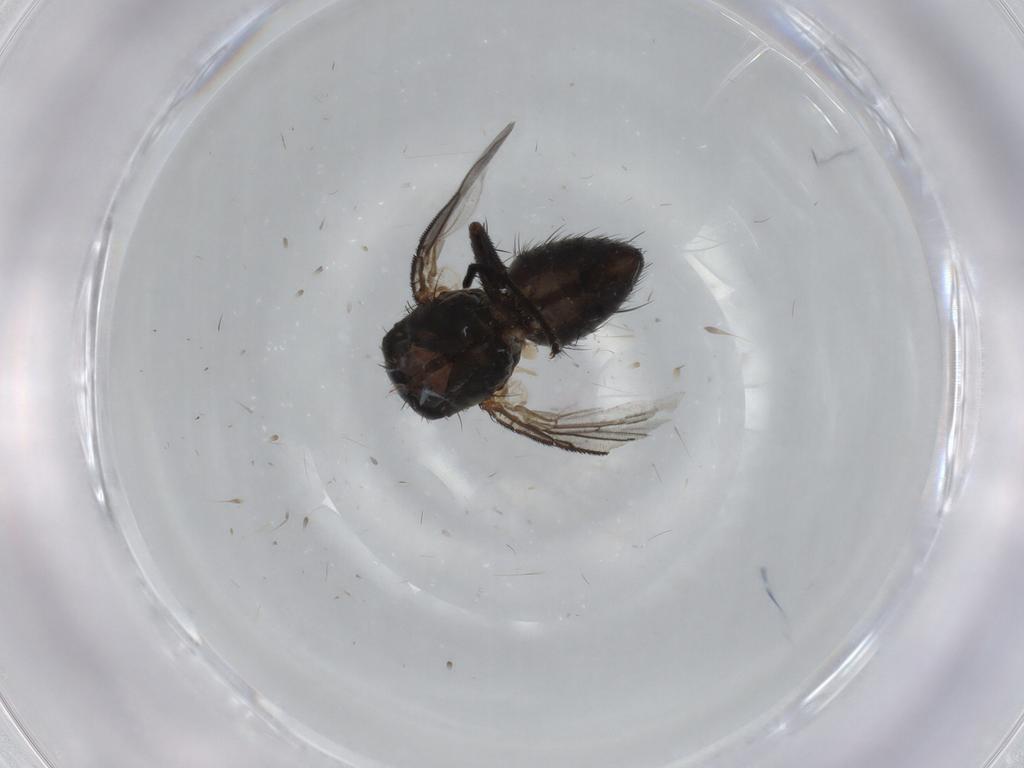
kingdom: Animalia
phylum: Arthropoda
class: Insecta
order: Diptera
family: Muscidae
